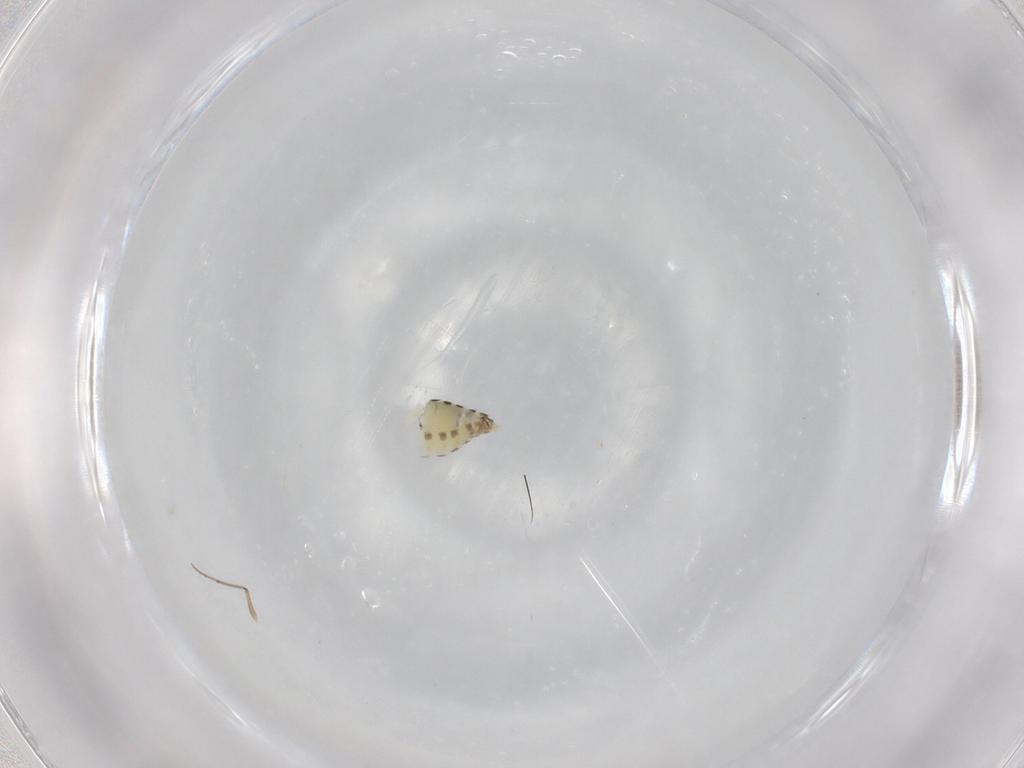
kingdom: Animalia
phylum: Arthropoda
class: Insecta
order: Diptera
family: Chironomidae
